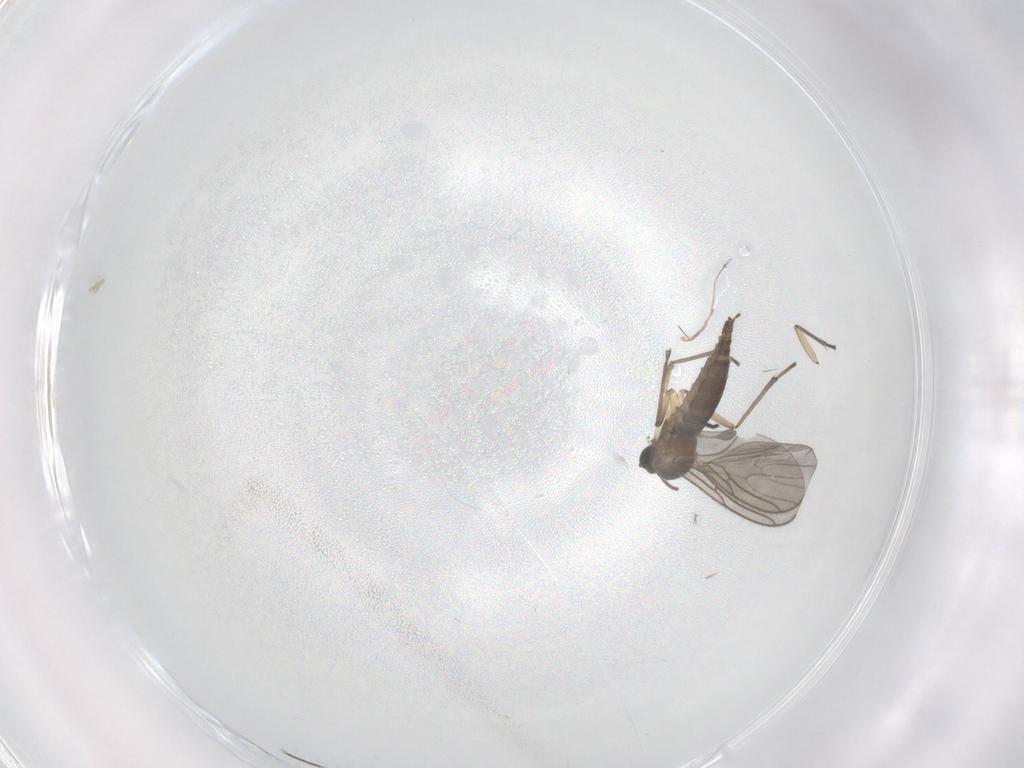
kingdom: Animalia
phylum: Arthropoda
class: Insecta
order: Diptera
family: Sciaridae
